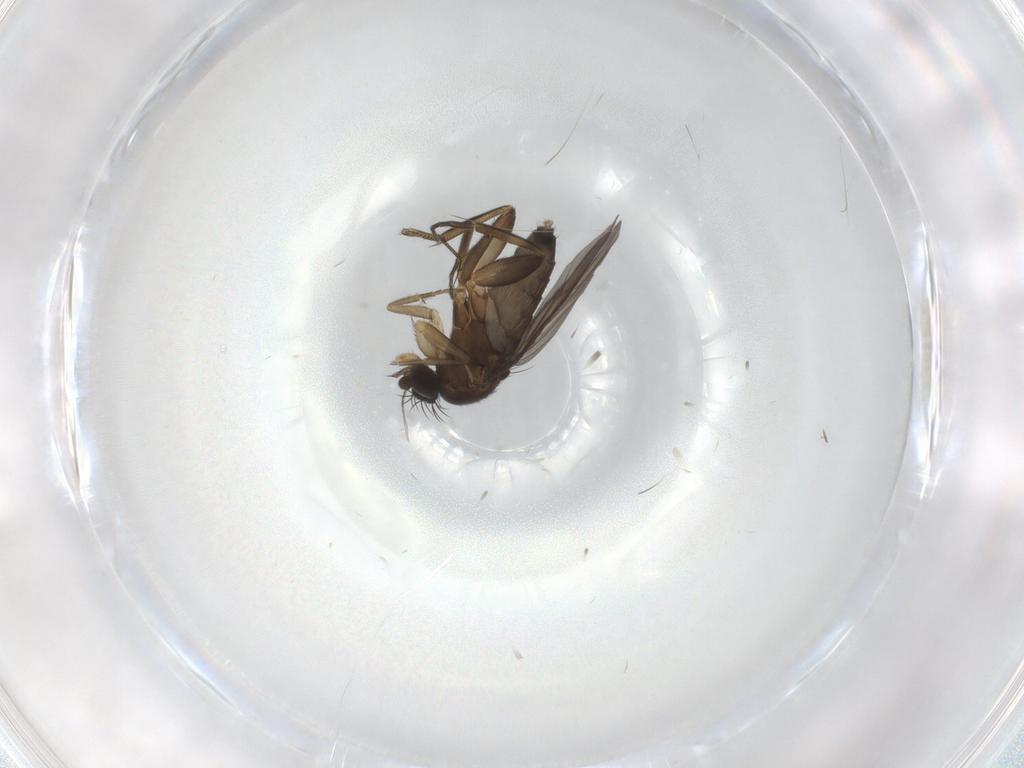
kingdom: Animalia
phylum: Arthropoda
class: Insecta
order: Diptera
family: Phoridae
